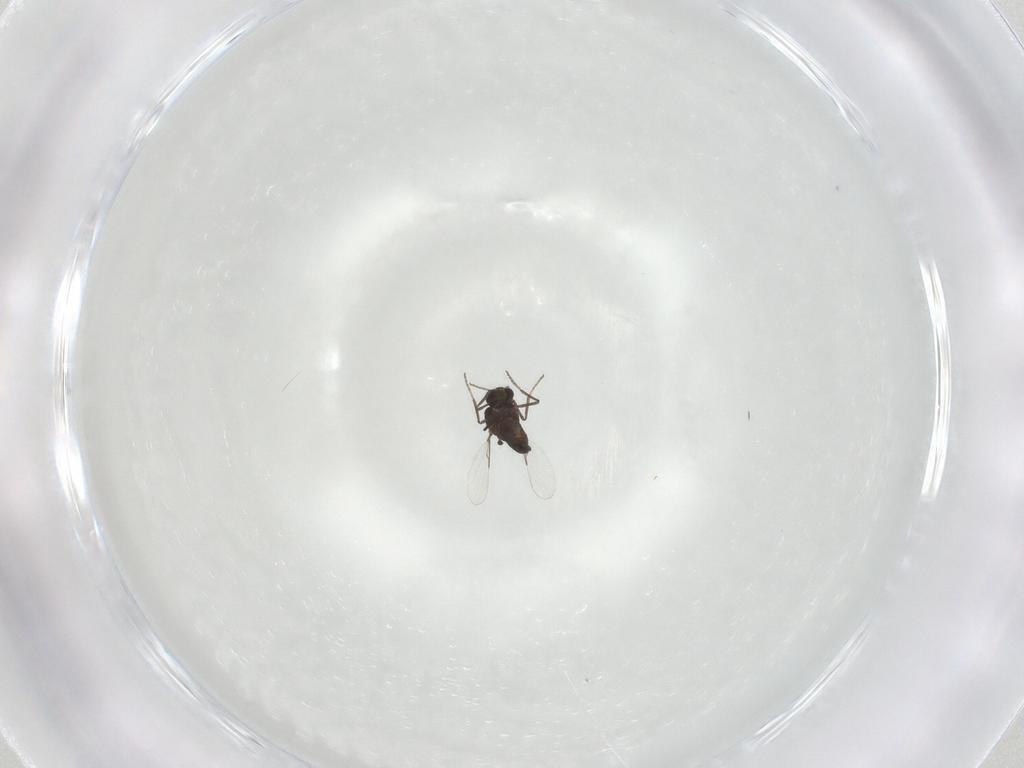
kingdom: Animalia
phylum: Arthropoda
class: Insecta
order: Diptera
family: Ceratopogonidae
